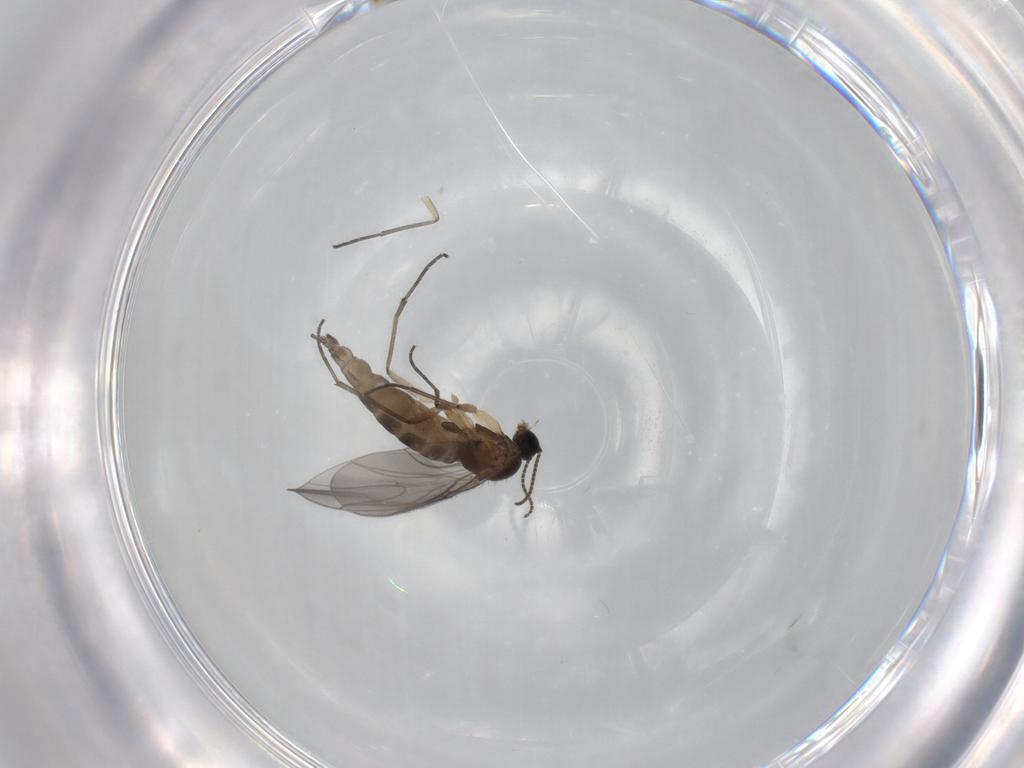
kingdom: Animalia
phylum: Arthropoda
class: Insecta
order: Diptera
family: Sciaridae
